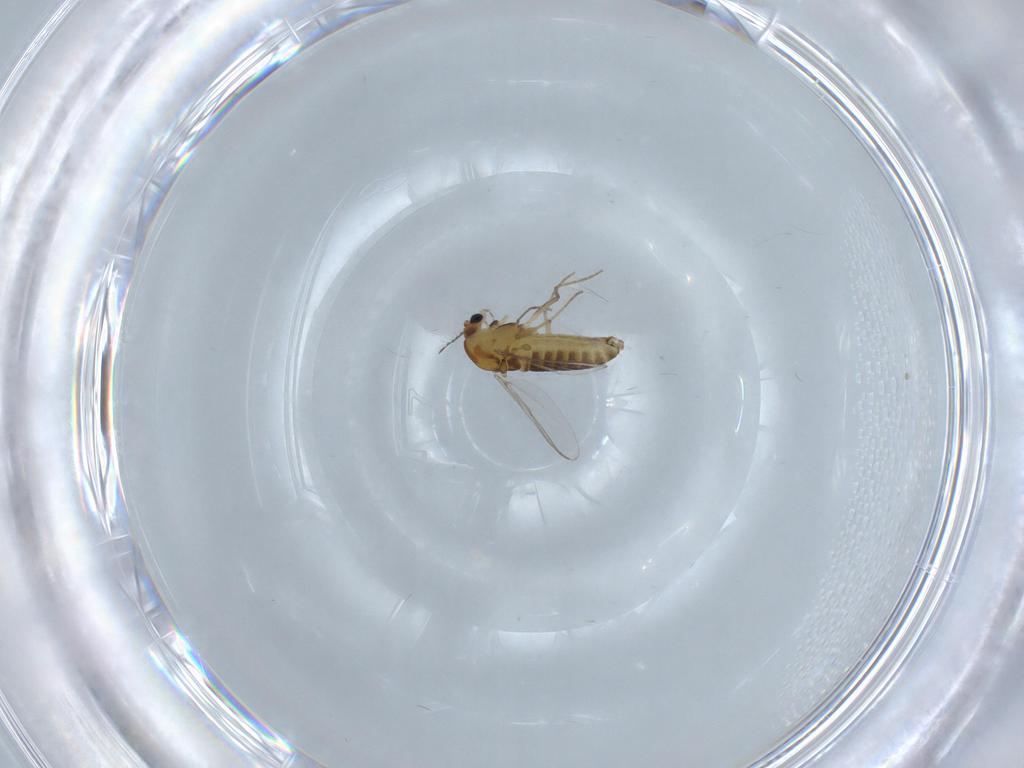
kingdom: Animalia
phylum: Arthropoda
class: Insecta
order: Diptera
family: Chironomidae
